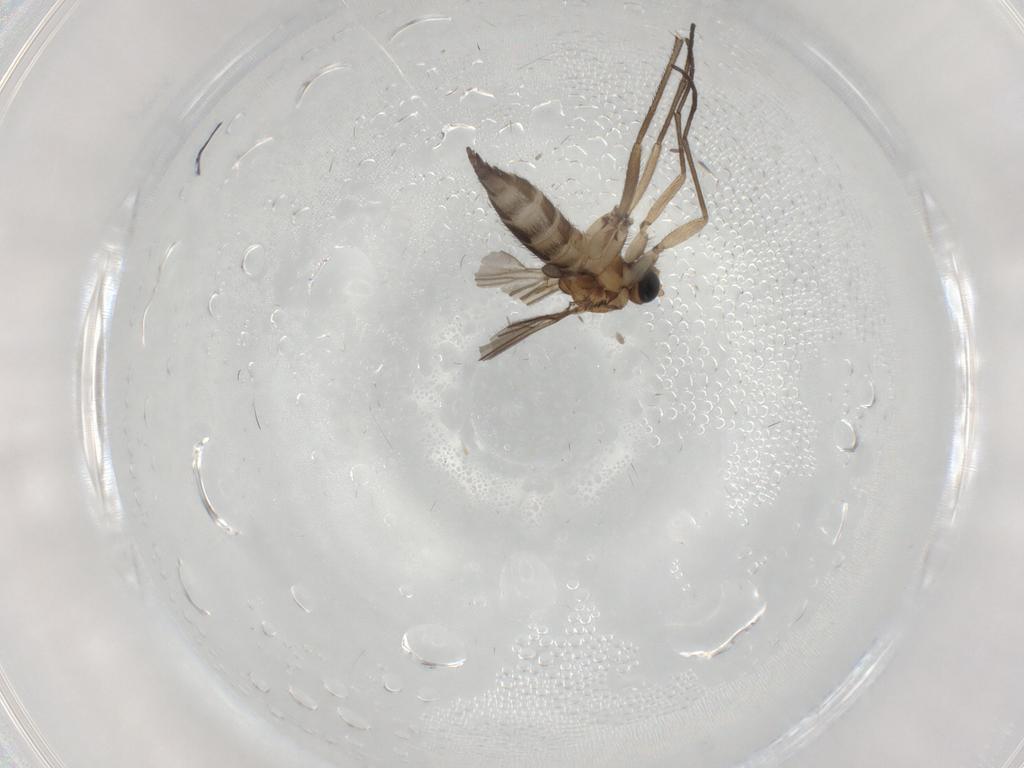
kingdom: Animalia
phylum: Arthropoda
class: Insecta
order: Diptera
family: Sciaridae
